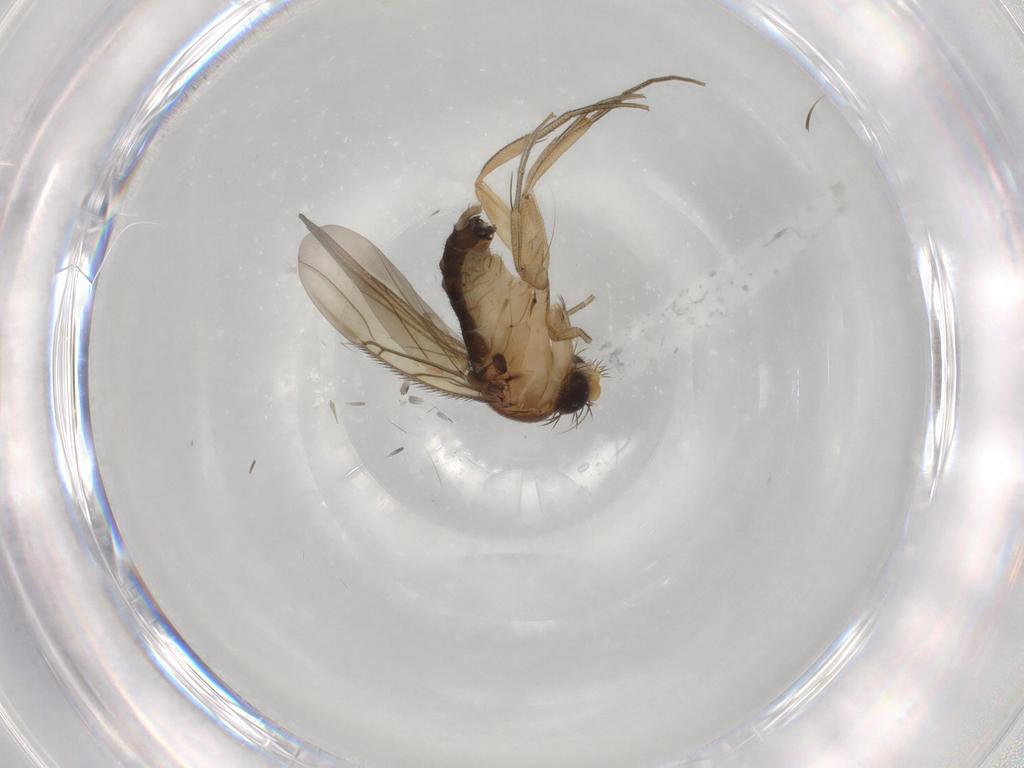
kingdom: Animalia
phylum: Arthropoda
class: Insecta
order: Diptera
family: Phoridae
